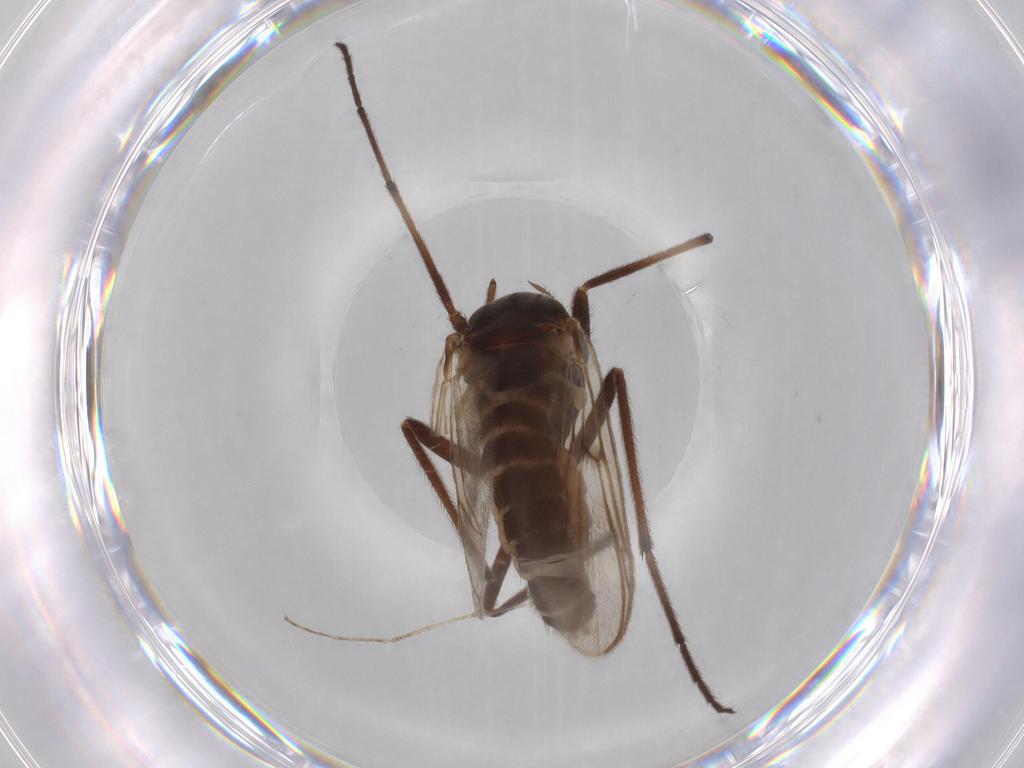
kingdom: Animalia
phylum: Arthropoda
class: Insecta
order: Diptera
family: Chironomidae
